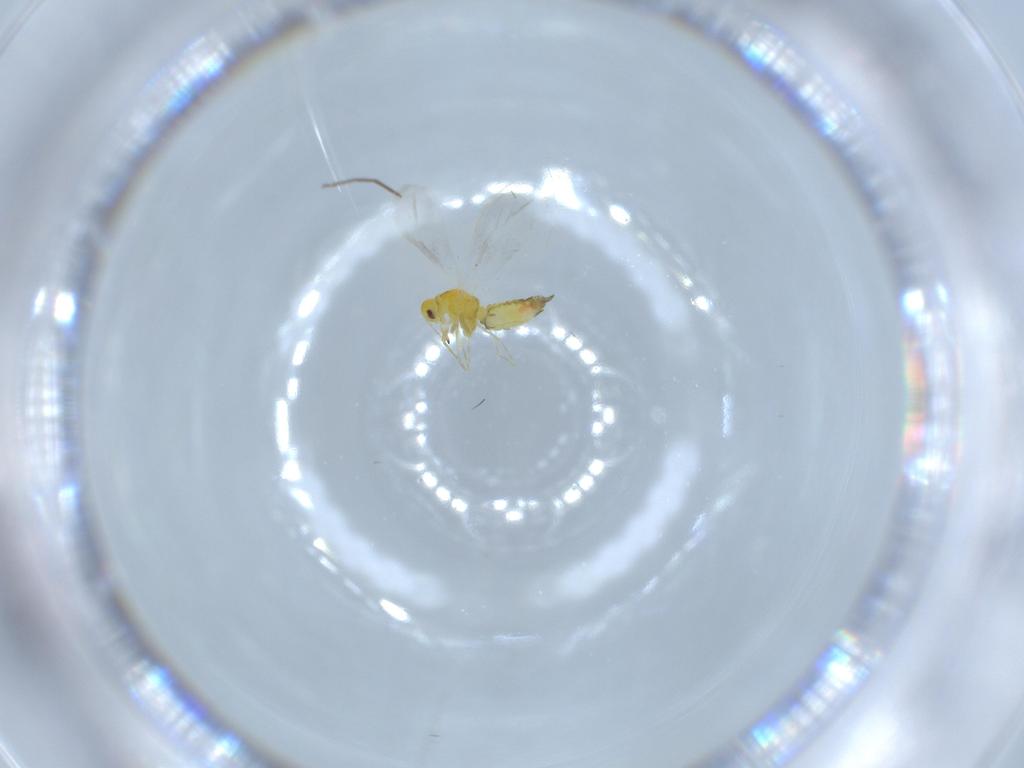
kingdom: Animalia
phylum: Arthropoda
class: Insecta
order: Hemiptera
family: Aleyrodidae
